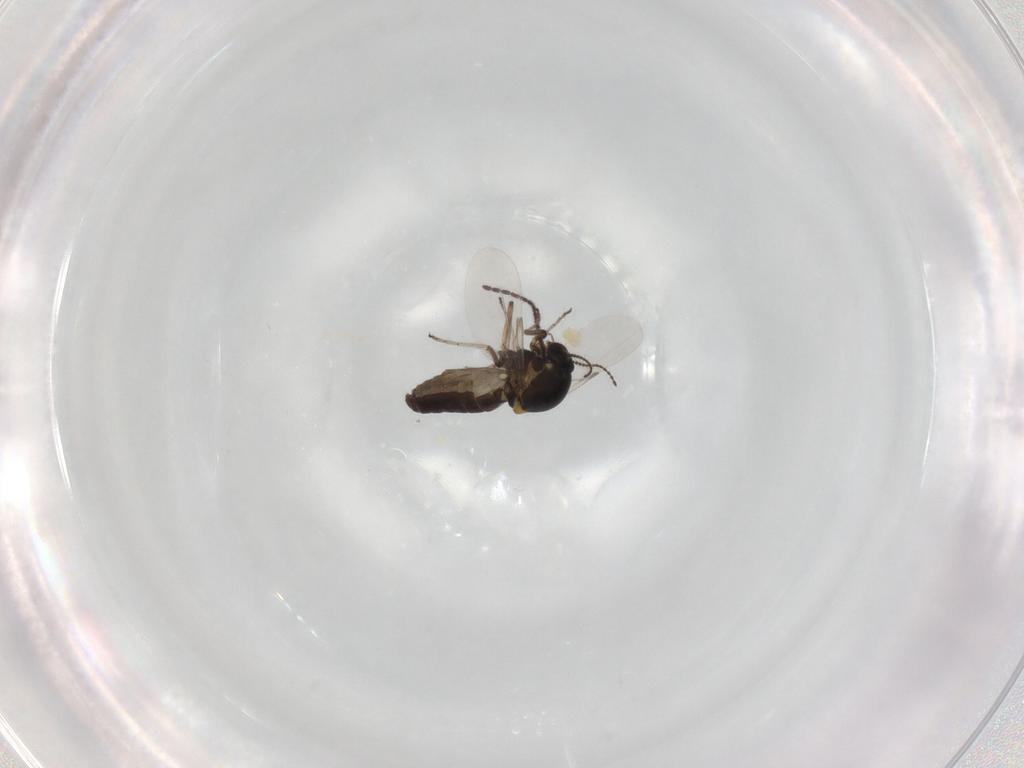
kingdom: Animalia
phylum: Arthropoda
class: Insecta
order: Diptera
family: Ceratopogonidae
